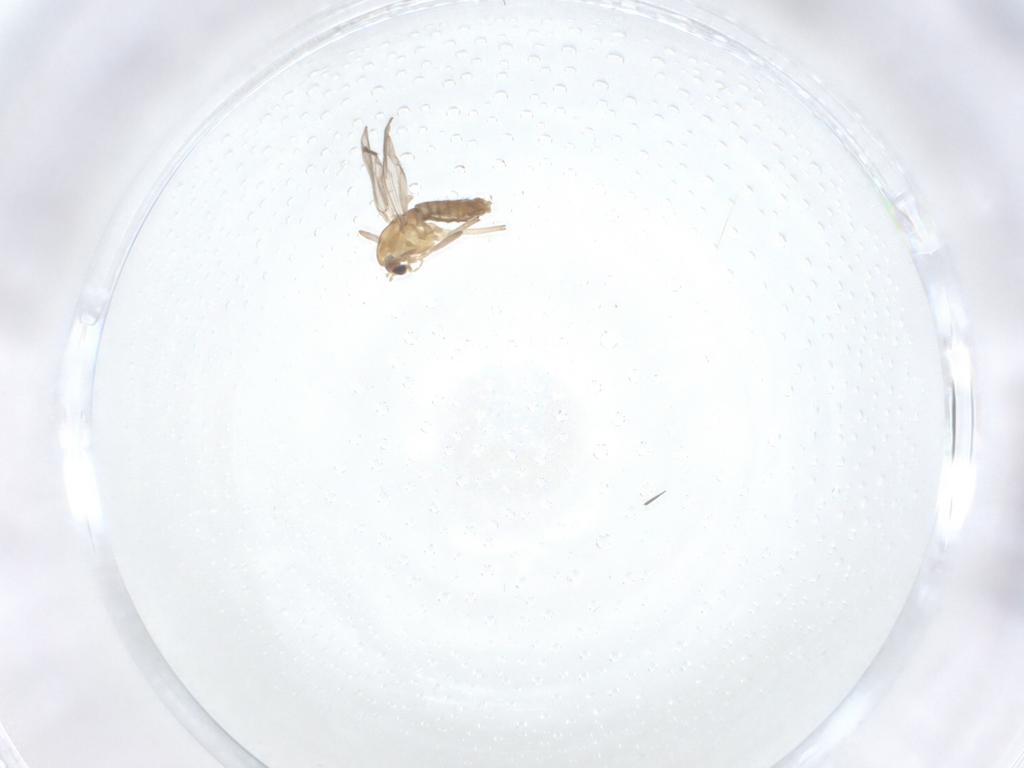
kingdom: Animalia
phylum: Arthropoda
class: Insecta
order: Diptera
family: Chironomidae
